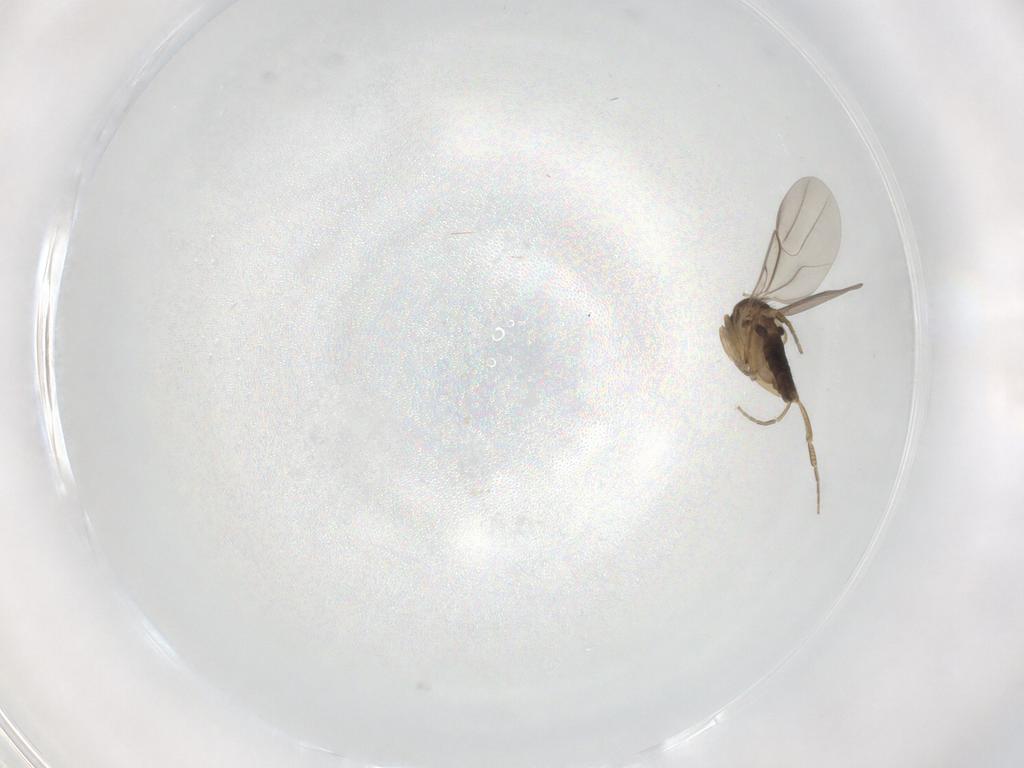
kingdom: Animalia
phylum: Arthropoda
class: Insecta
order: Diptera
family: Phoridae
